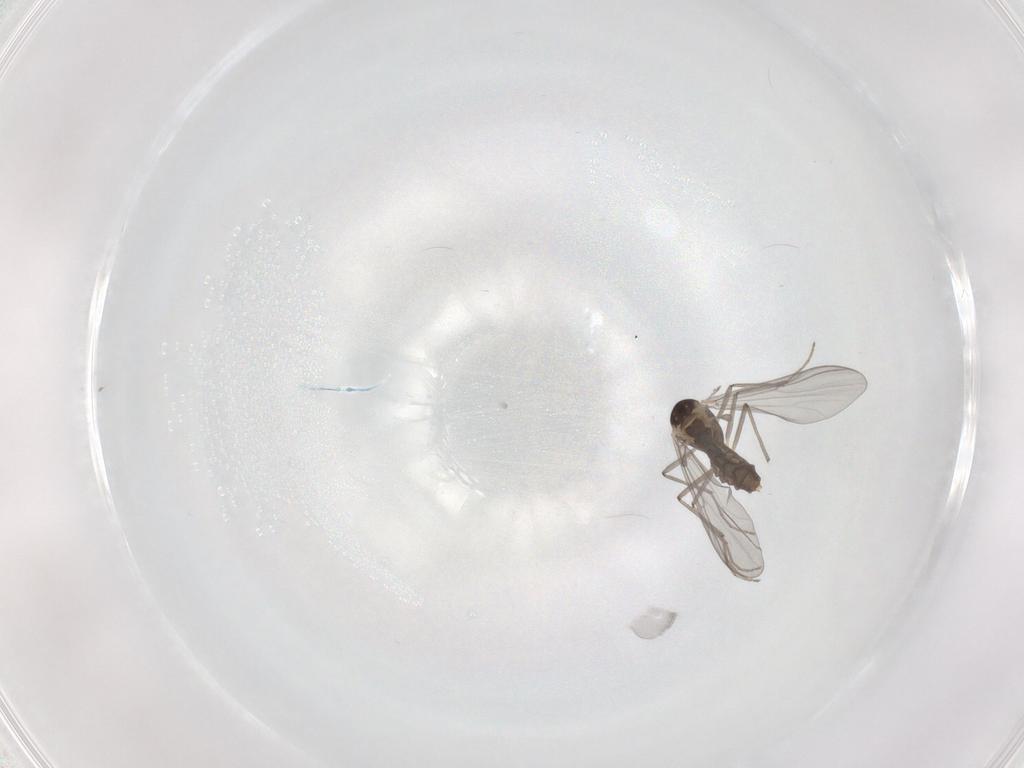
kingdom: Animalia
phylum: Arthropoda
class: Insecta
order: Diptera
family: Chironomidae
